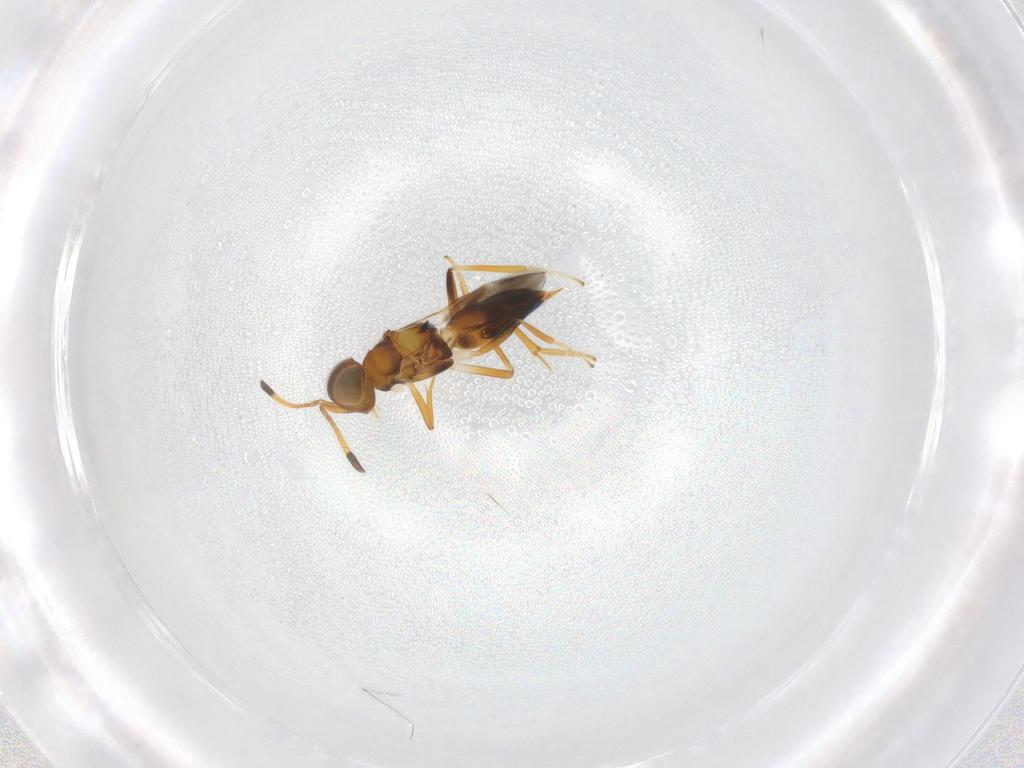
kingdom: Animalia
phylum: Arthropoda
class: Insecta
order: Hymenoptera
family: Encyrtidae
